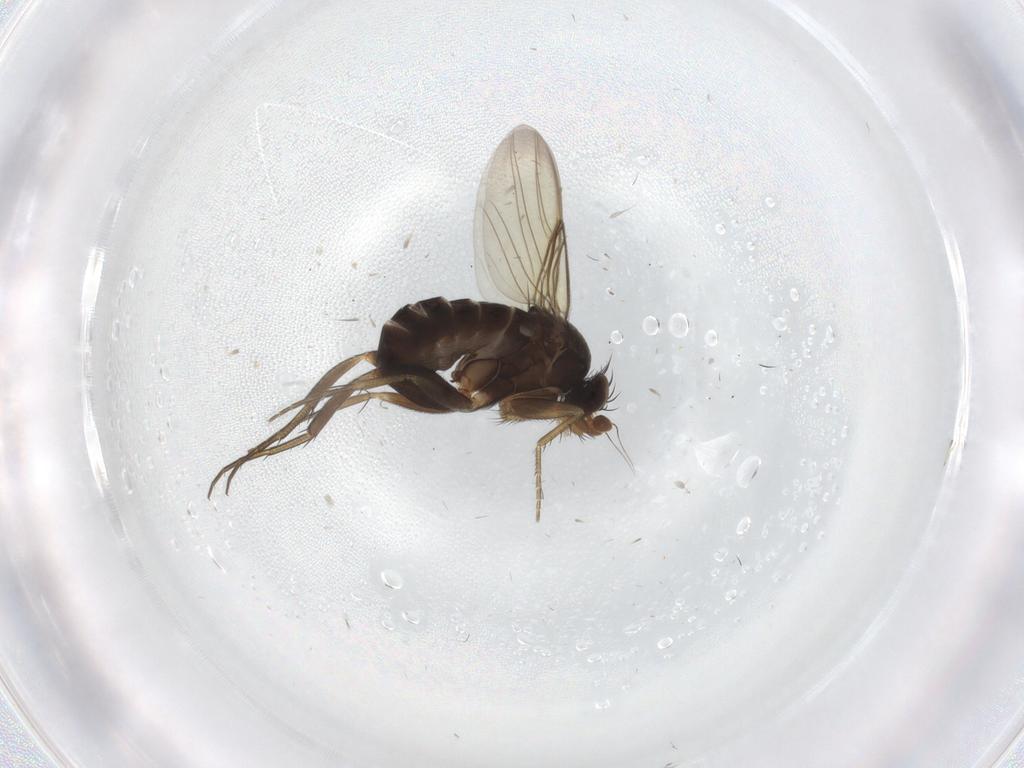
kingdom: Animalia
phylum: Arthropoda
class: Insecta
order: Diptera
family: Phoridae
